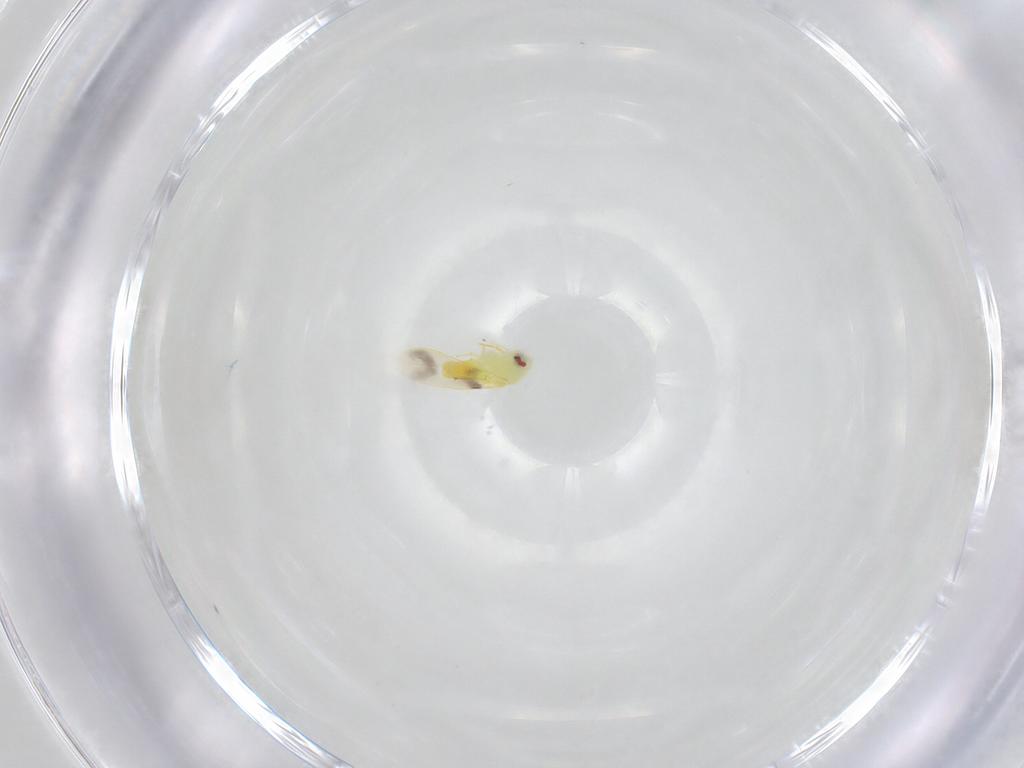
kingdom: Animalia
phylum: Arthropoda
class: Insecta
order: Hemiptera
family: Aleyrodidae
